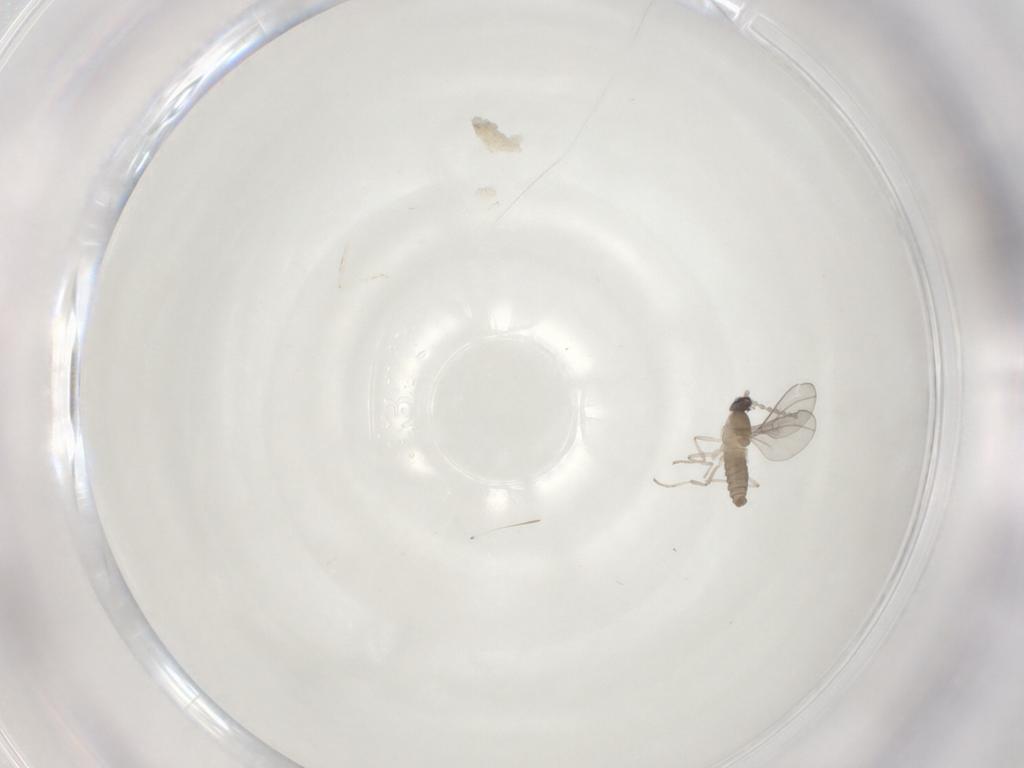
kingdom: Animalia
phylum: Arthropoda
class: Insecta
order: Diptera
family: Cecidomyiidae
